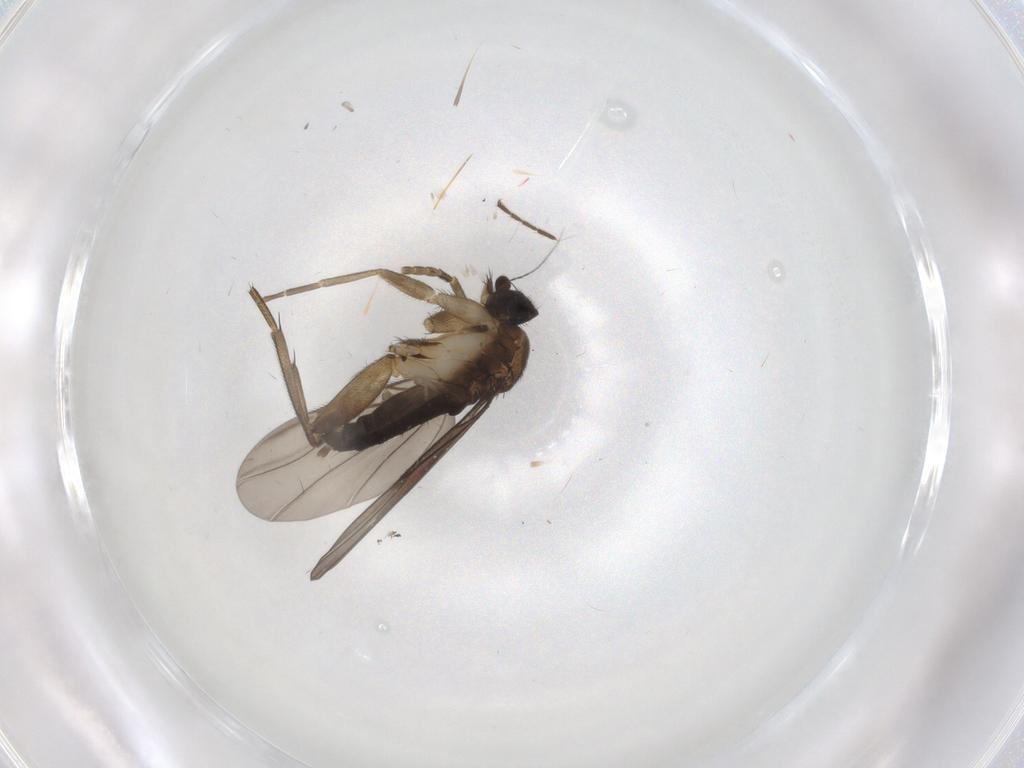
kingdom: Animalia
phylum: Arthropoda
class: Insecta
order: Diptera
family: Phoridae
